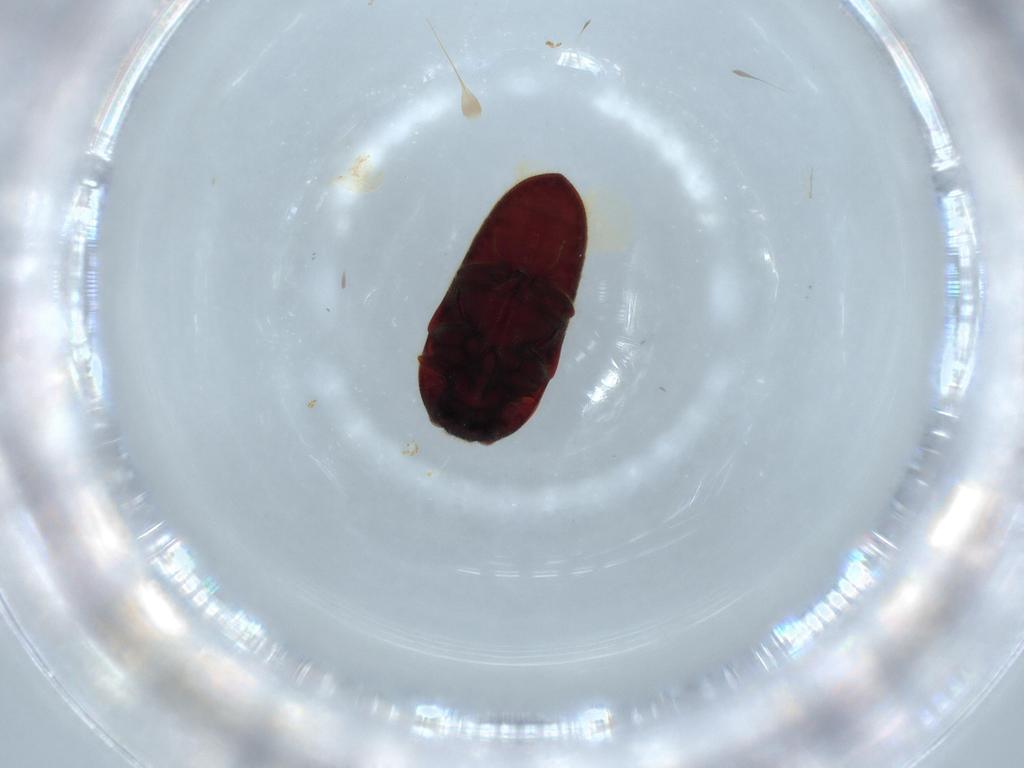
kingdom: Animalia
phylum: Arthropoda
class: Insecta
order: Coleoptera
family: Throscidae
